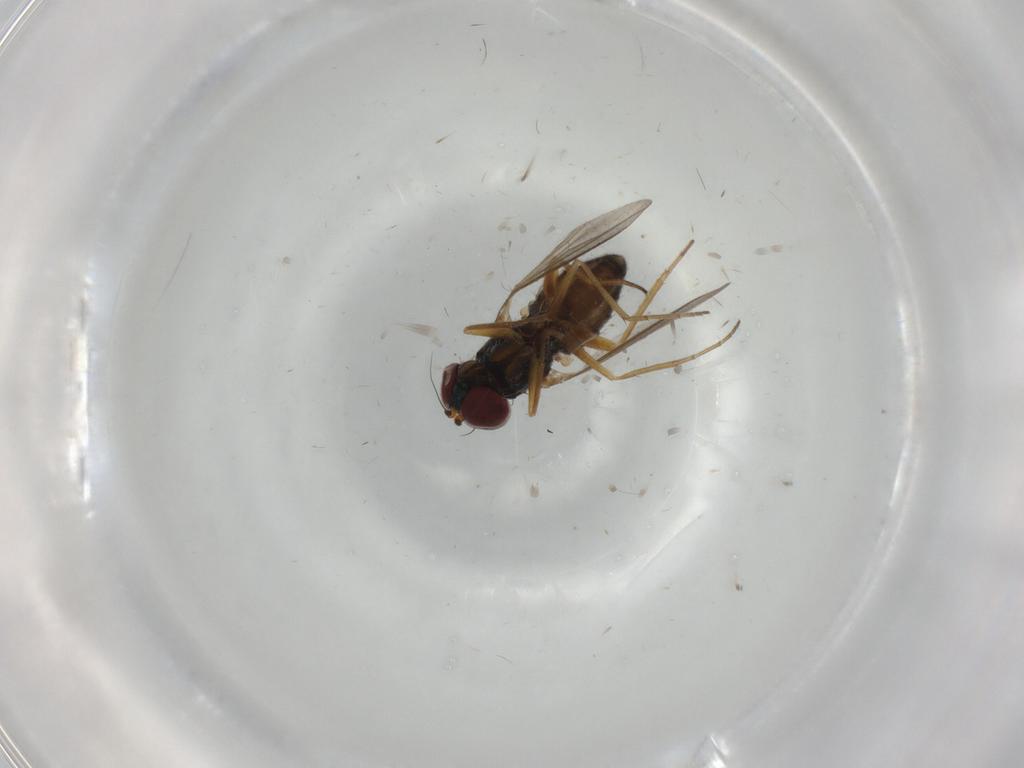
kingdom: Animalia
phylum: Arthropoda
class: Insecta
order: Diptera
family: Dolichopodidae
